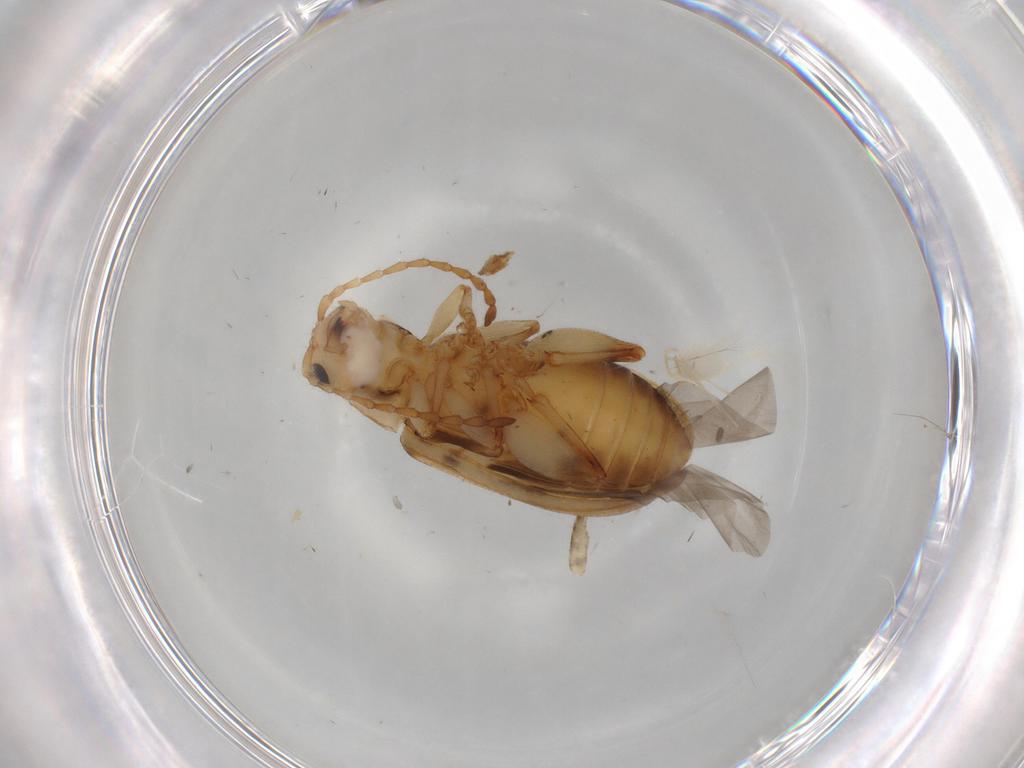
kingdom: Animalia
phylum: Arthropoda
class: Insecta
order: Coleoptera
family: Chrysomelidae
